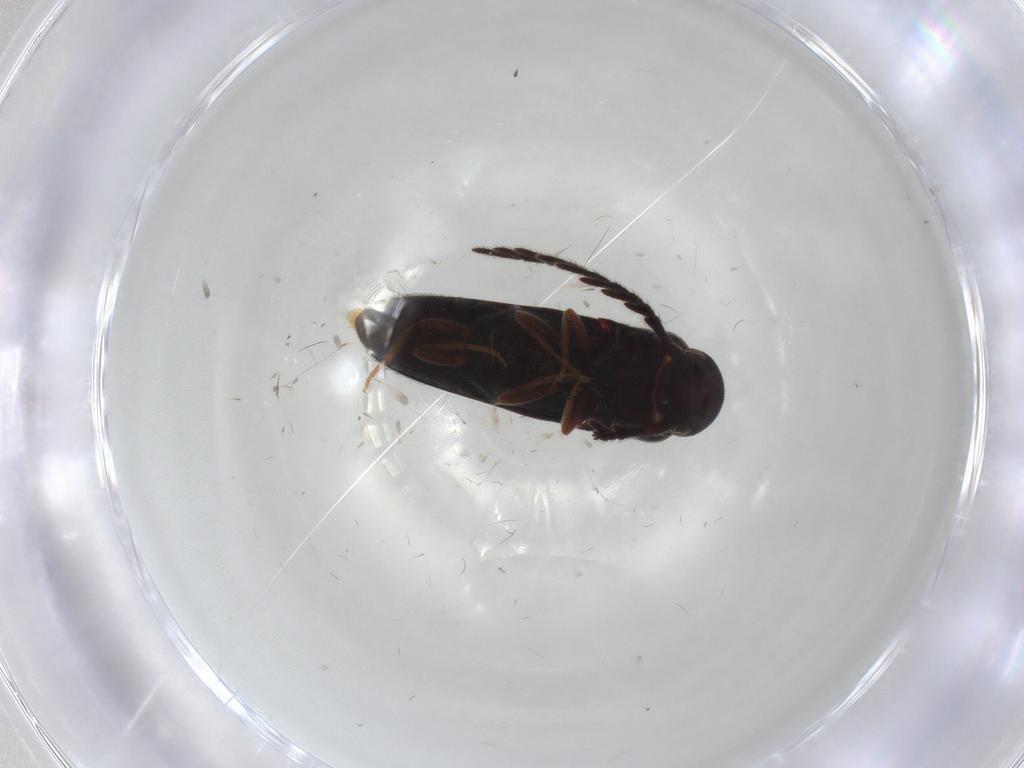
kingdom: Animalia
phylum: Arthropoda
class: Insecta
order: Coleoptera
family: Eucnemidae
